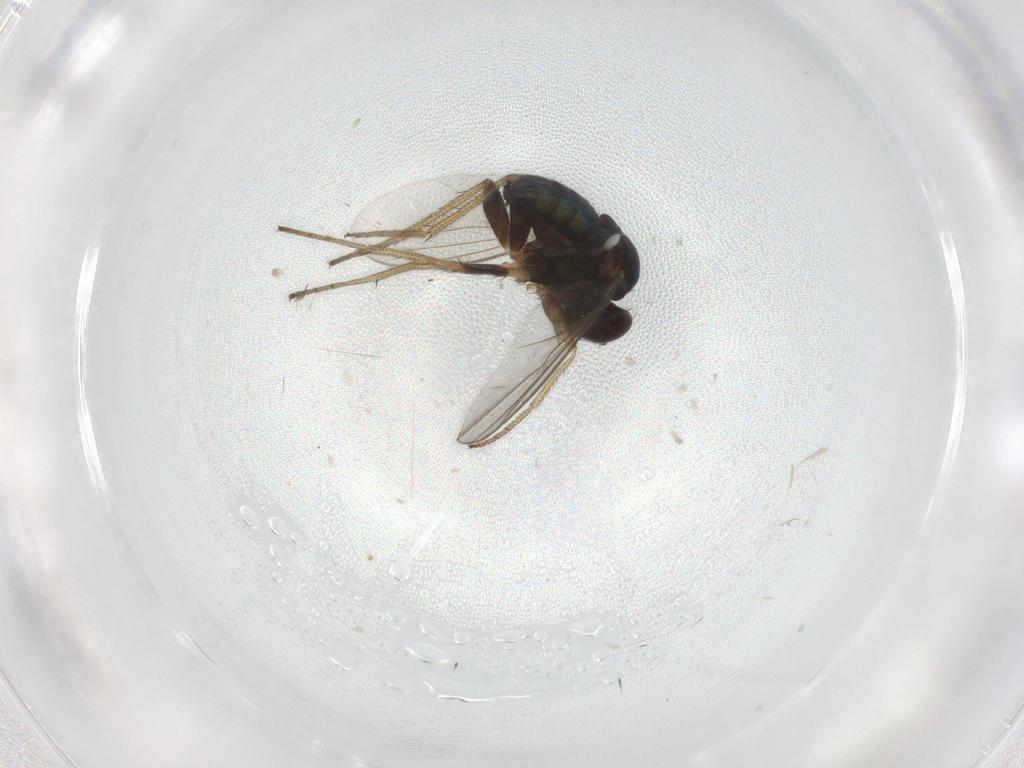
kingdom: Animalia
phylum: Arthropoda
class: Insecta
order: Diptera
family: Dolichopodidae
